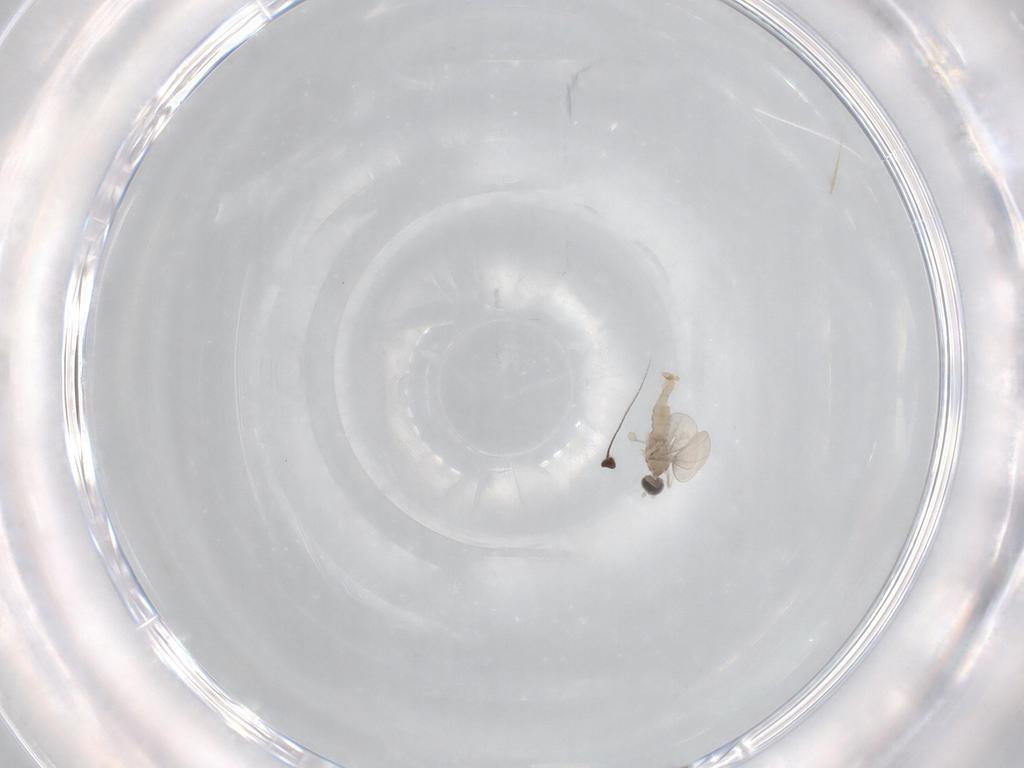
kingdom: Animalia
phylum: Arthropoda
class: Insecta
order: Diptera
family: Cecidomyiidae
